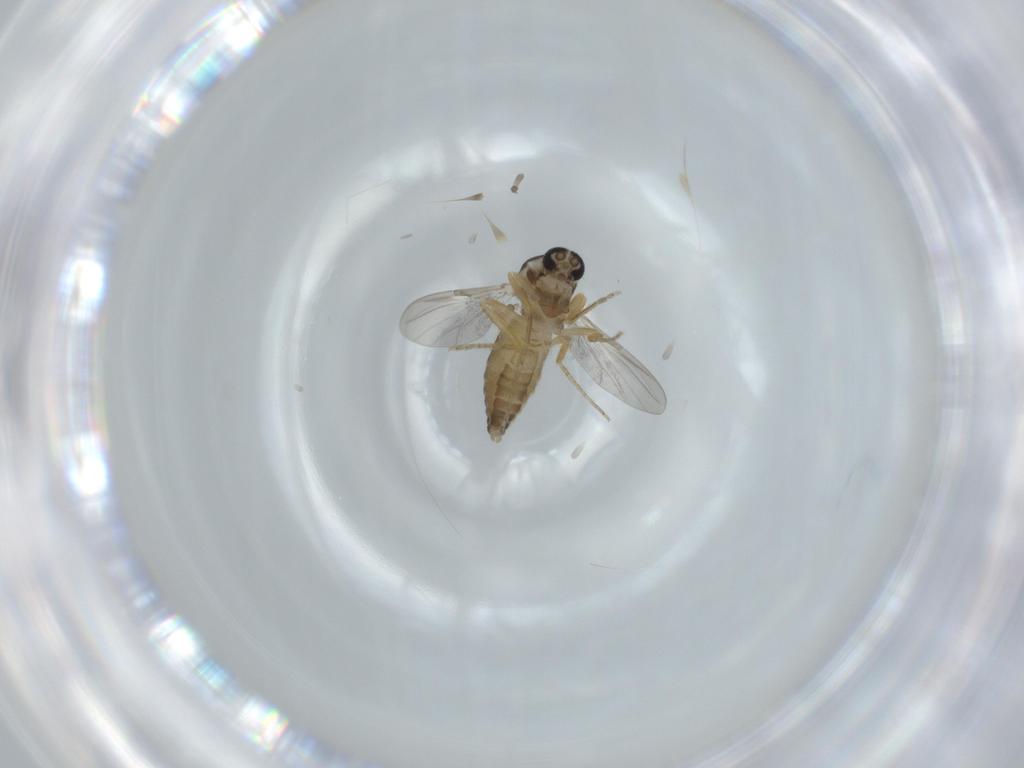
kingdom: Animalia
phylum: Arthropoda
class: Insecta
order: Diptera
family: Ceratopogonidae
